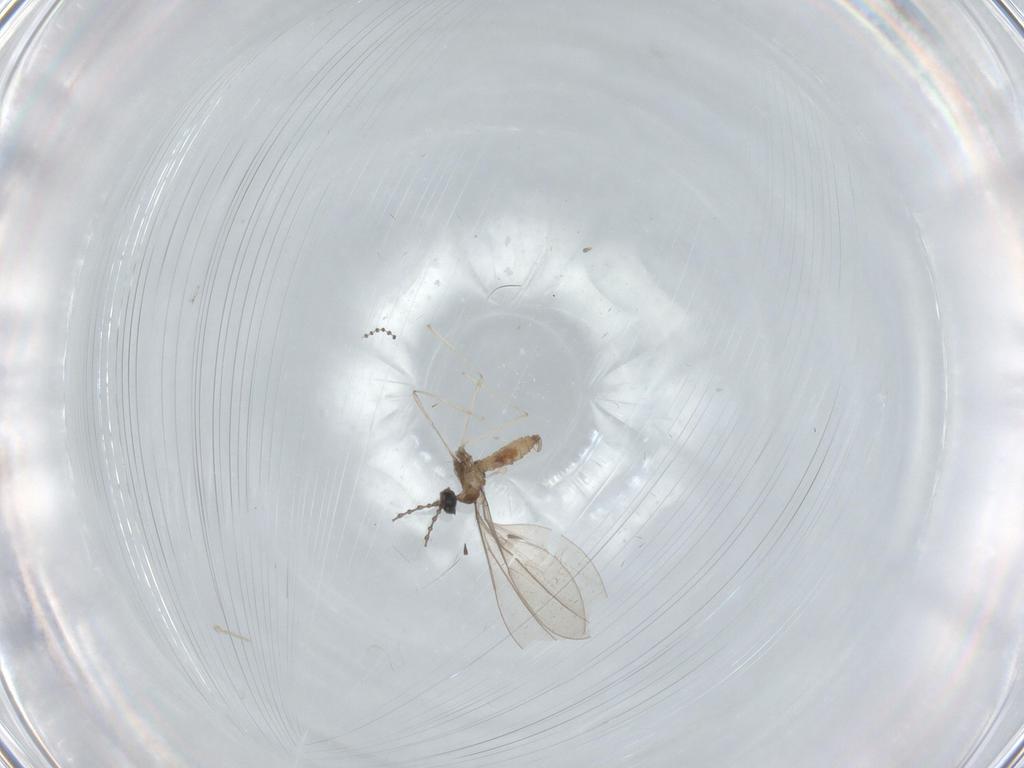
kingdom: Animalia
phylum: Arthropoda
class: Insecta
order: Diptera
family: Cecidomyiidae
